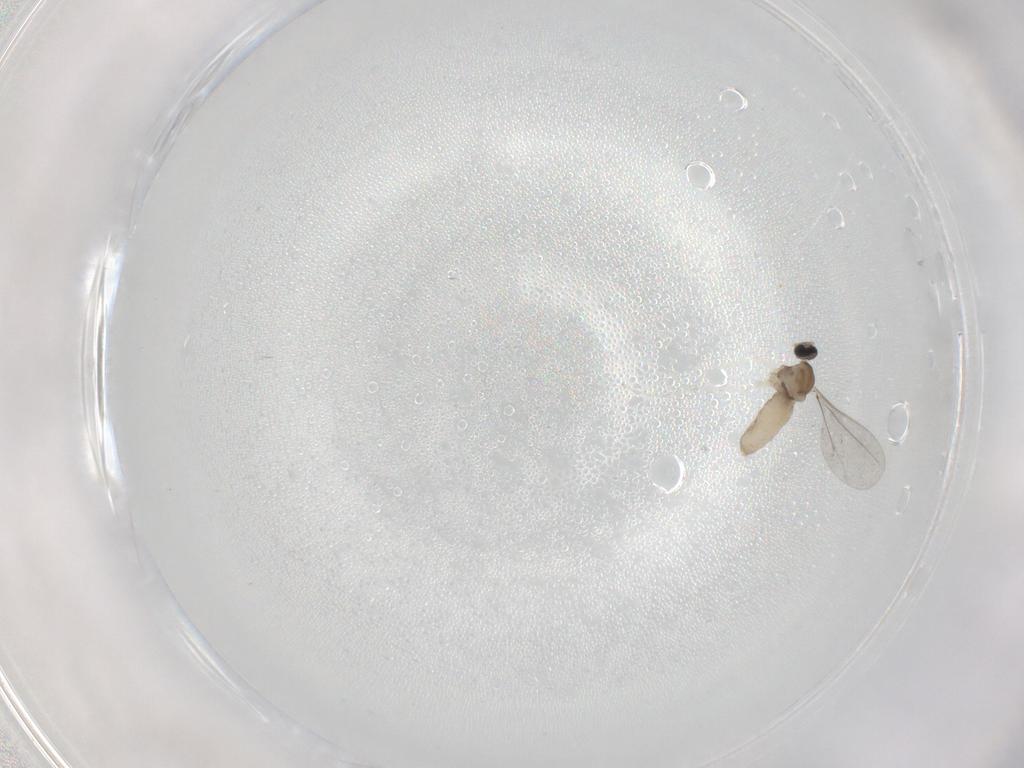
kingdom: Animalia
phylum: Arthropoda
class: Insecta
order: Diptera
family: Cecidomyiidae
